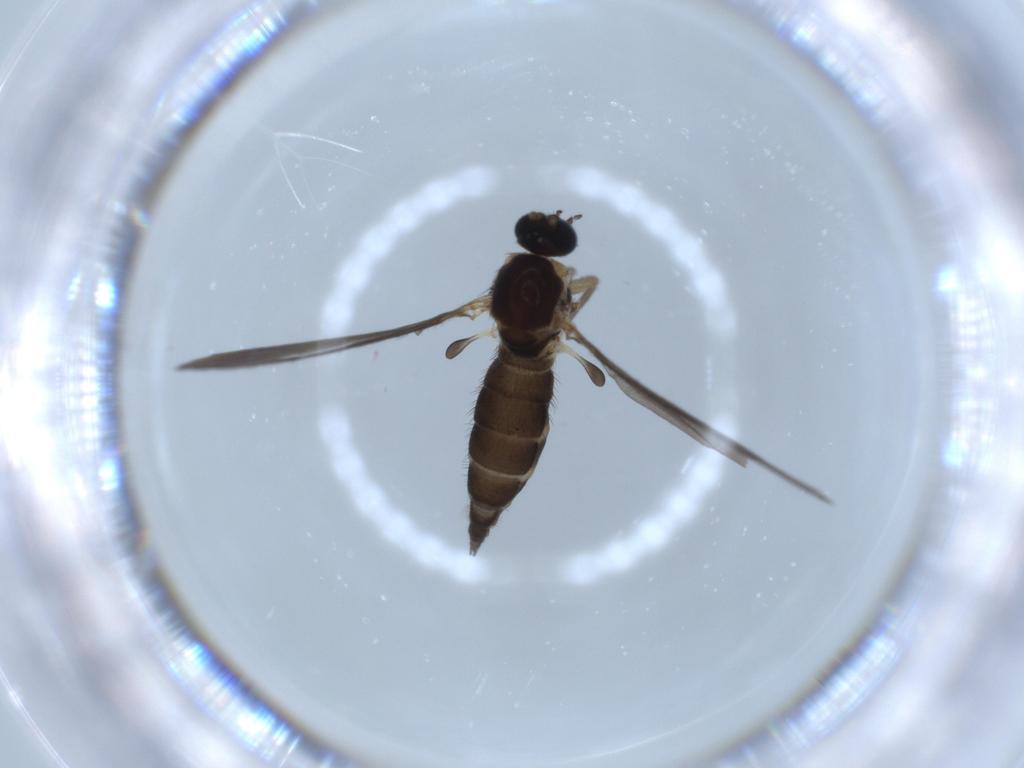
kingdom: Animalia
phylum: Arthropoda
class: Insecta
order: Diptera
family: Sciaridae
